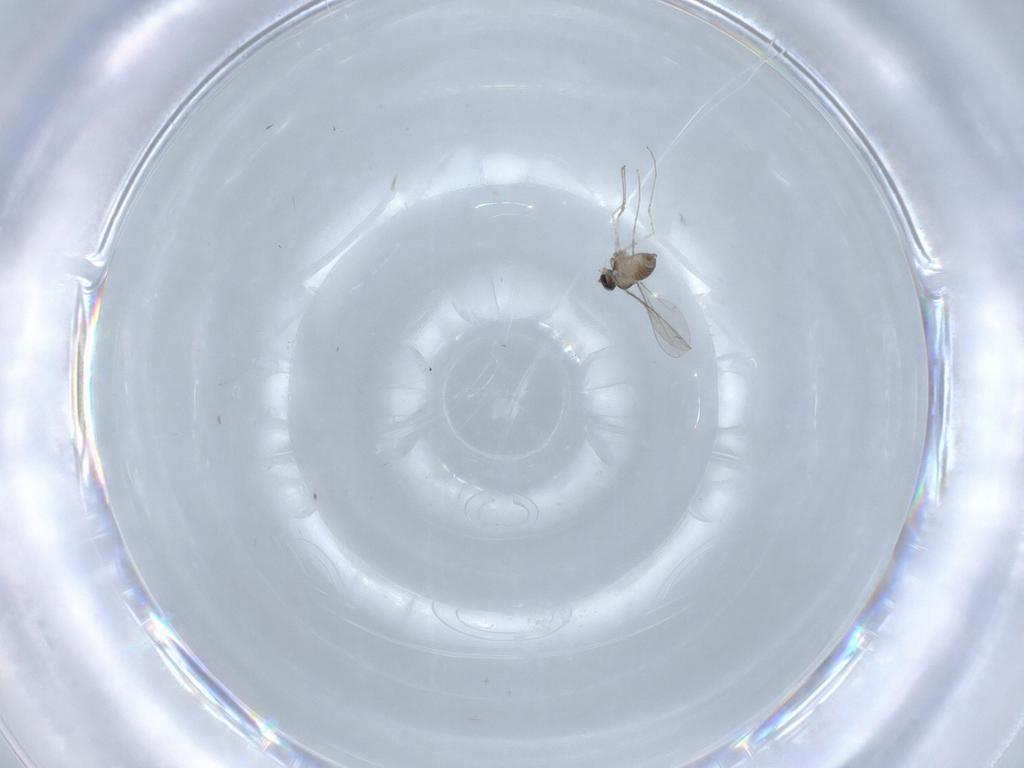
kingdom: Animalia
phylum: Arthropoda
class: Insecta
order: Diptera
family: Cecidomyiidae
